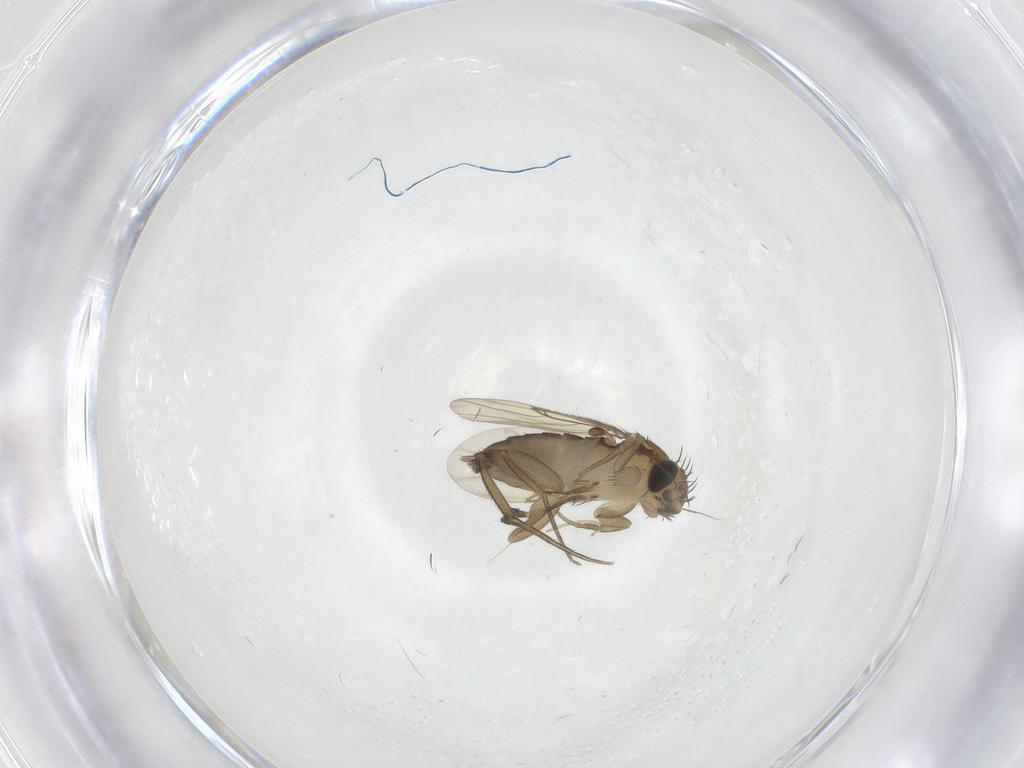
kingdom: Animalia
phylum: Arthropoda
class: Insecta
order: Diptera
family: Phoridae
